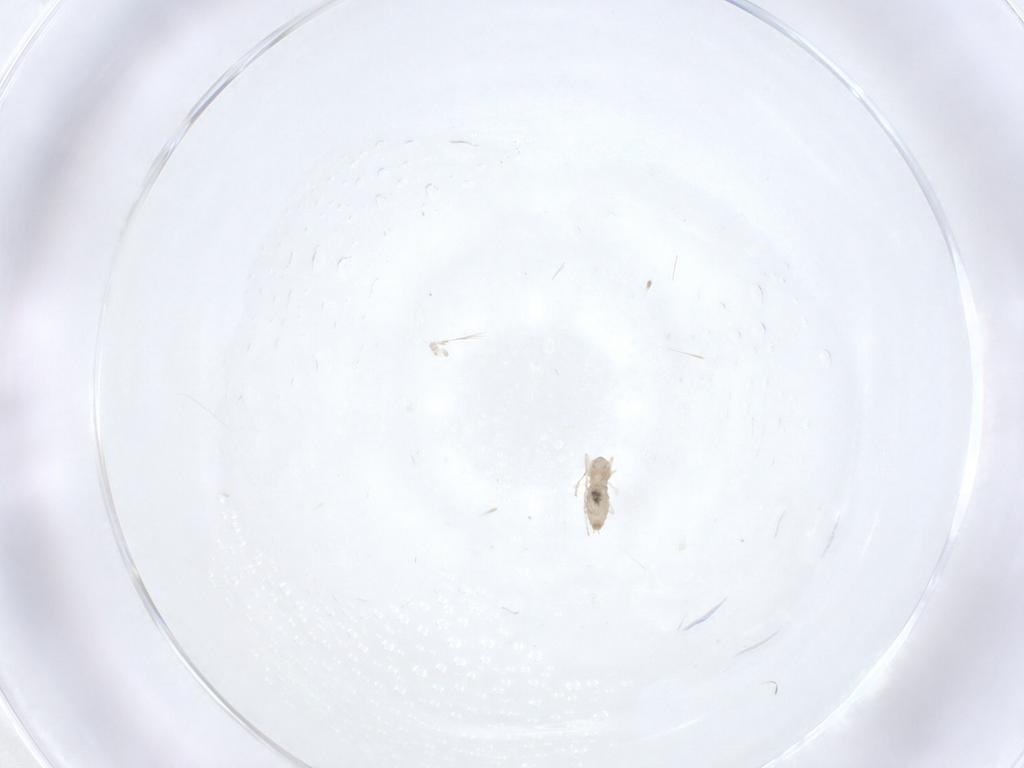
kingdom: Animalia
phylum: Arthropoda
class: Insecta
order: Diptera
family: Cecidomyiidae
